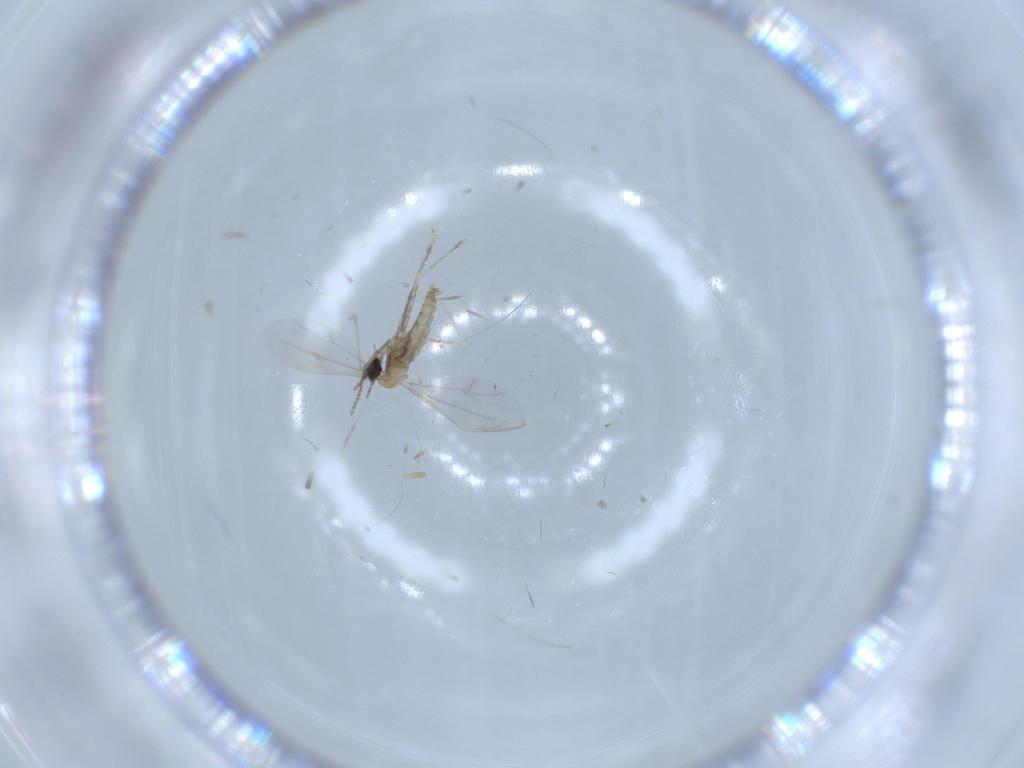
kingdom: Animalia
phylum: Arthropoda
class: Insecta
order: Diptera
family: Cecidomyiidae
